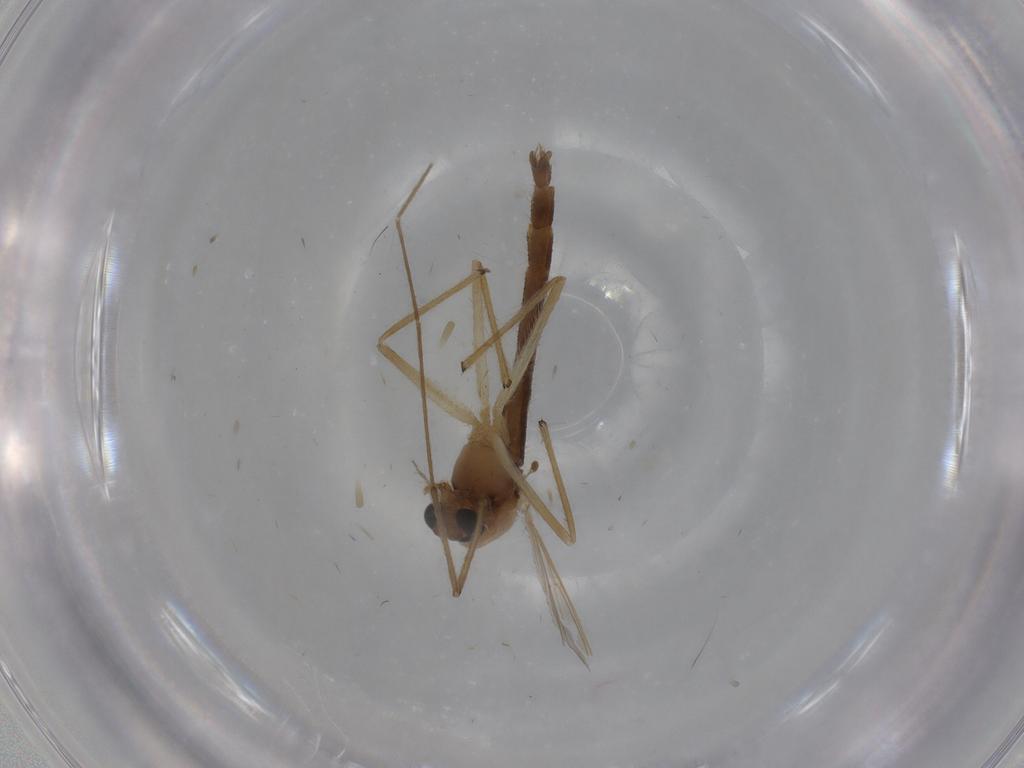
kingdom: Animalia
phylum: Arthropoda
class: Insecta
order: Diptera
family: Chironomidae
